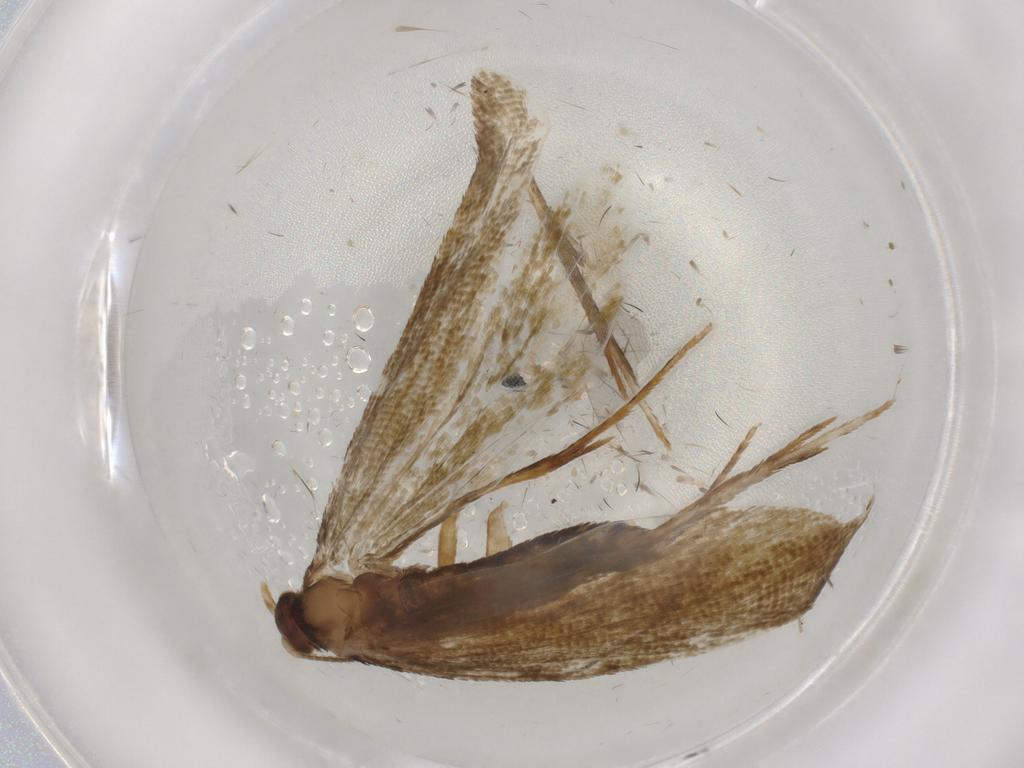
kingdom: Animalia
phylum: Arthropoda
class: Insecta
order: Lepidoptera
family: Tineidae
